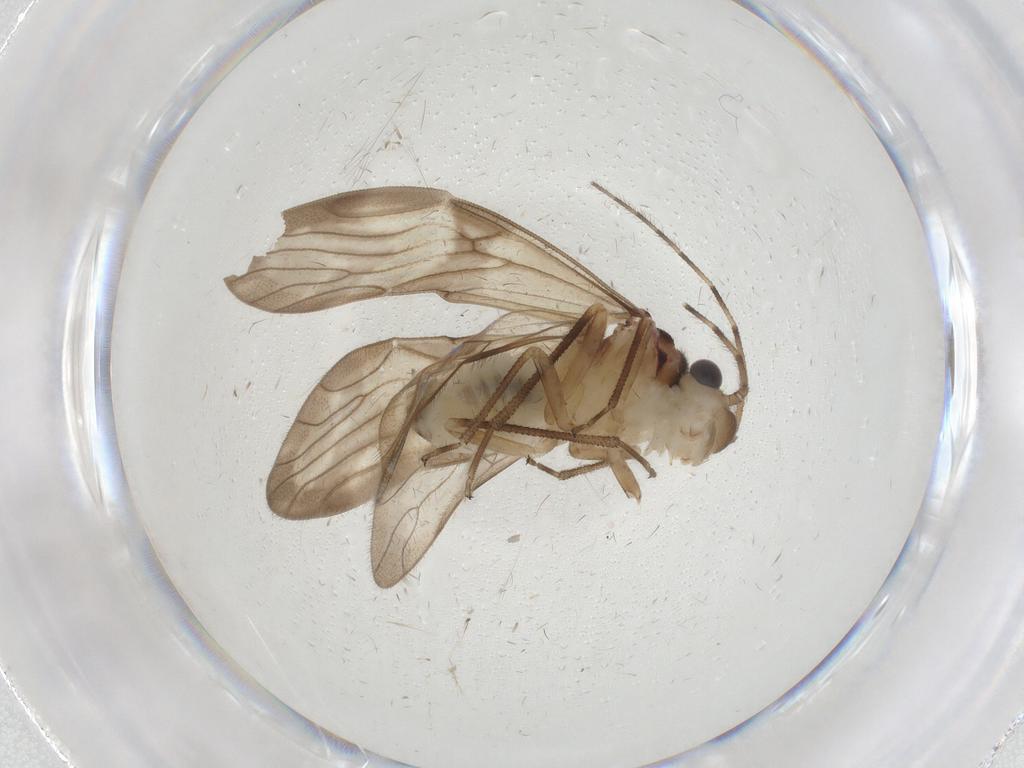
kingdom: Animalia
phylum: Arthropoda
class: Insecta
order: Psocodea
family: Amphipsocidae
